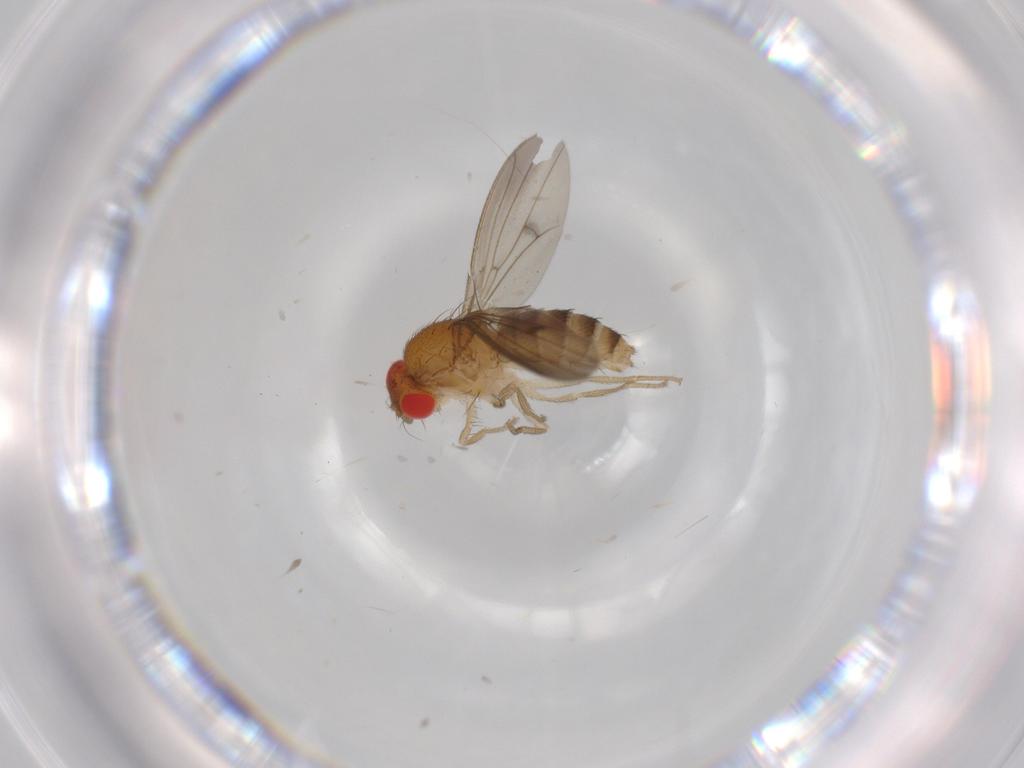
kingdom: Animalia
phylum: Arthropoda
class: Insecta
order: Diptera
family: Drosophilidae
